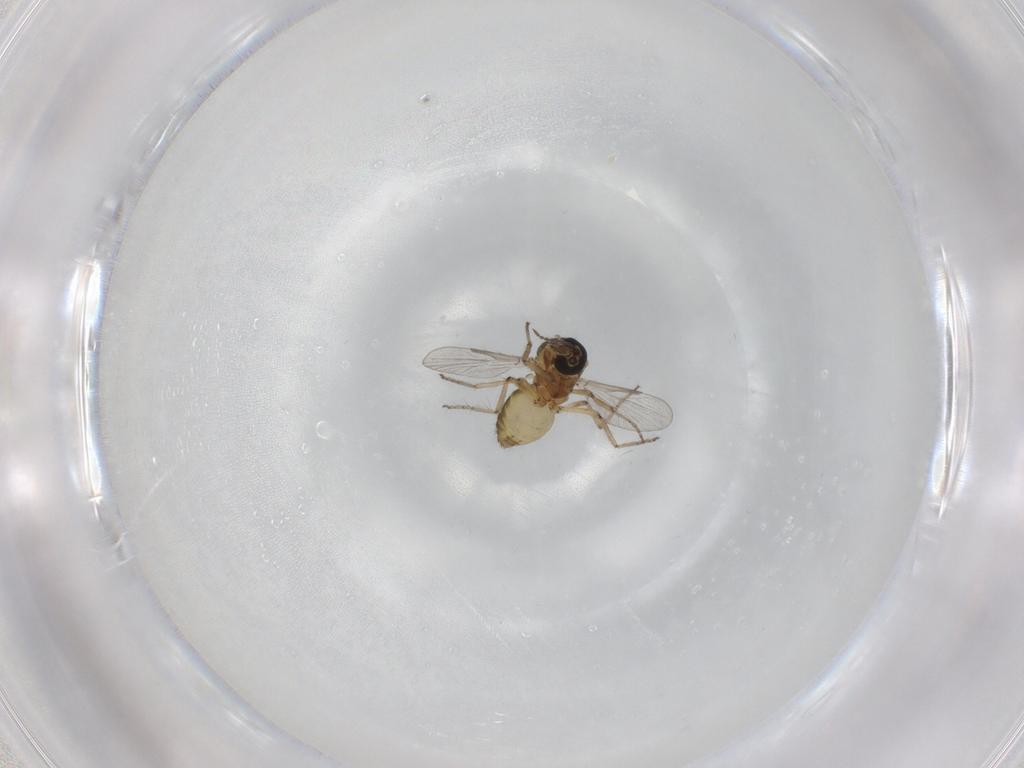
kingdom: Animalia
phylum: Arthropoda
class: Insecta
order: Diptera
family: Ceratopogonidae
